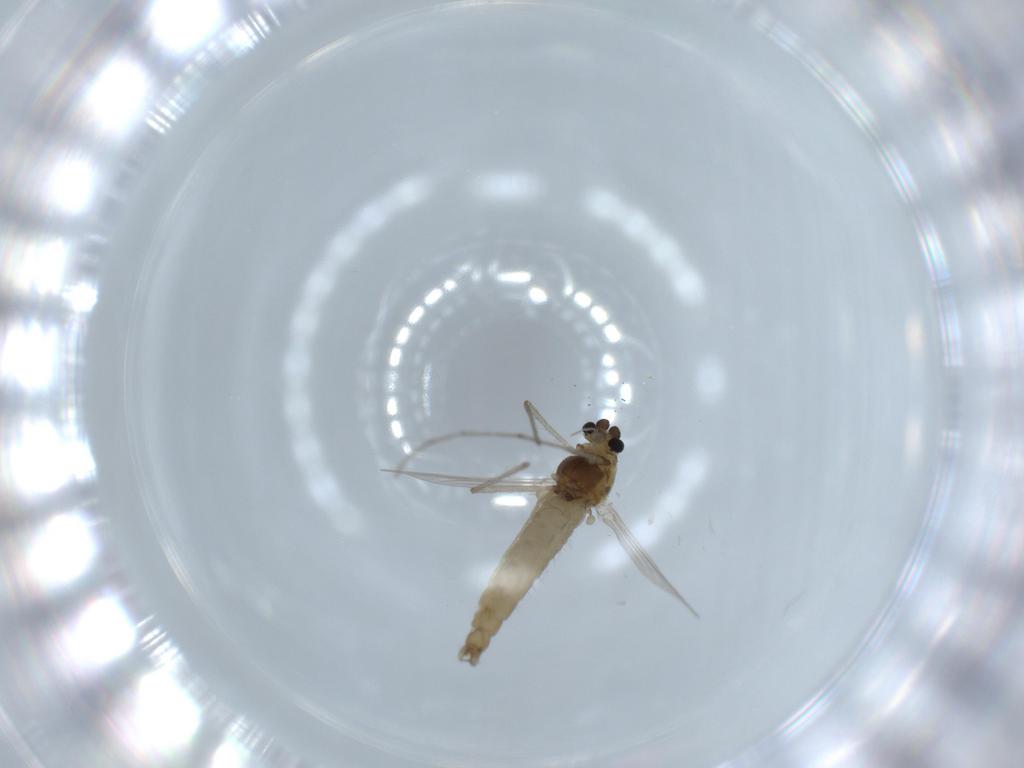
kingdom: Animalia
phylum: Arthropoda
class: Insecta
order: Diptera
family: Chironomidae
